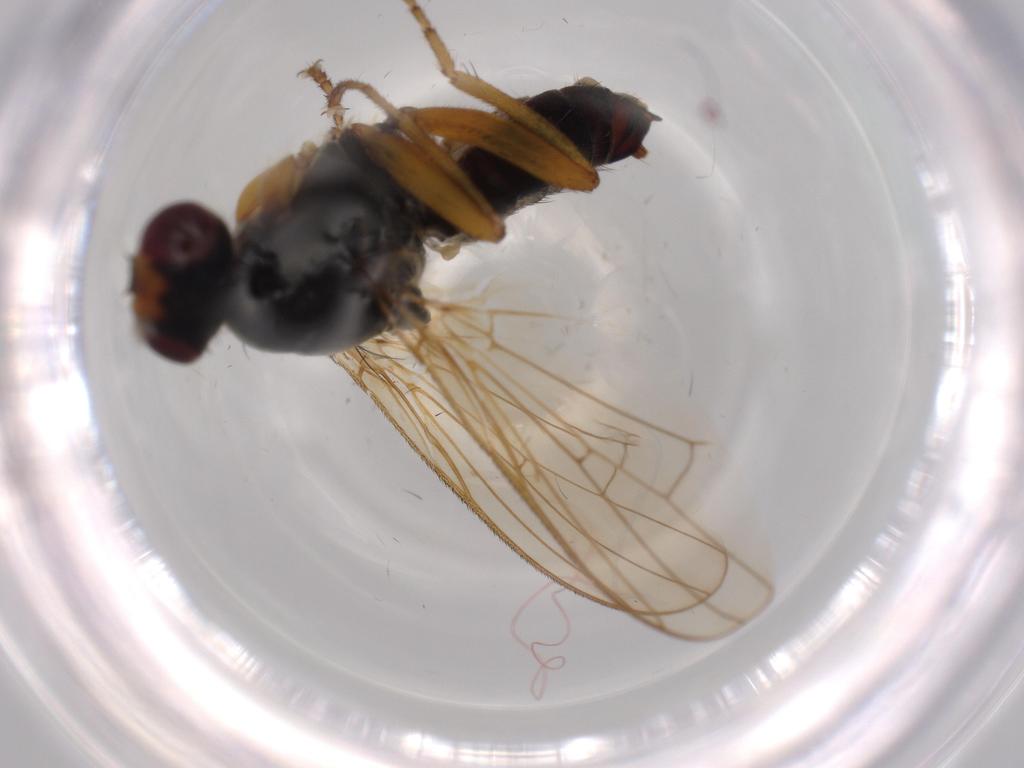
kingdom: Animalia
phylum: Arthropoda
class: Insecta
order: Diptera
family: Scathophagidae
